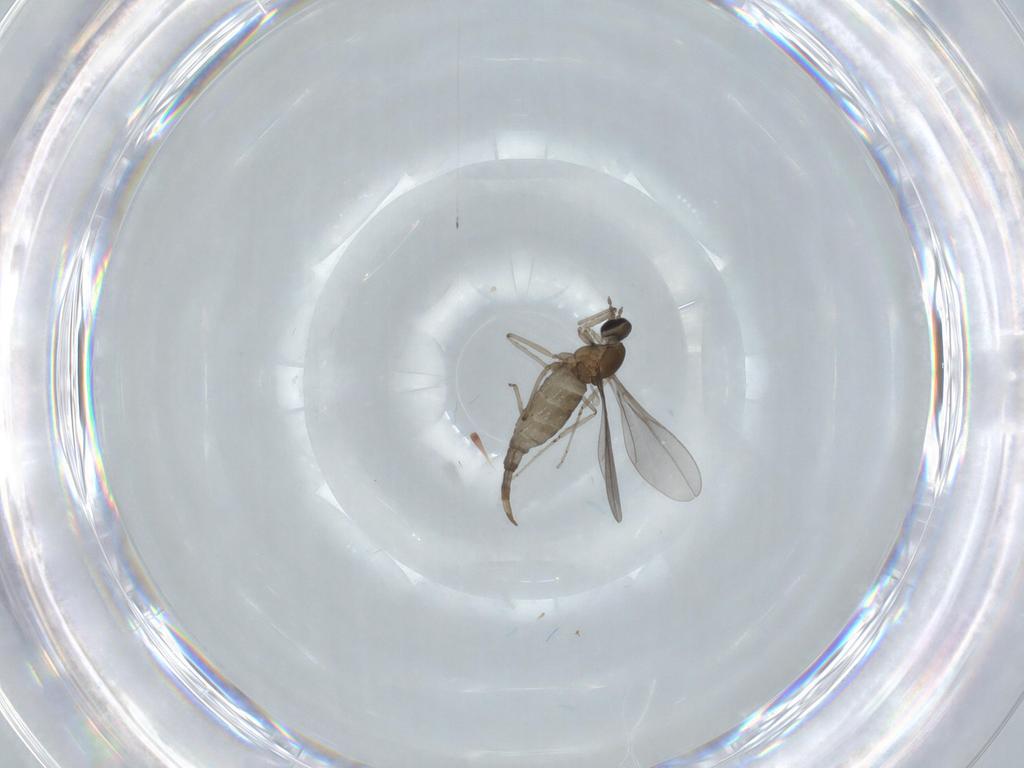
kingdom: Animalia
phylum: Arthropoda
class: Insecta
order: Diptera
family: Cecidomyiidae
